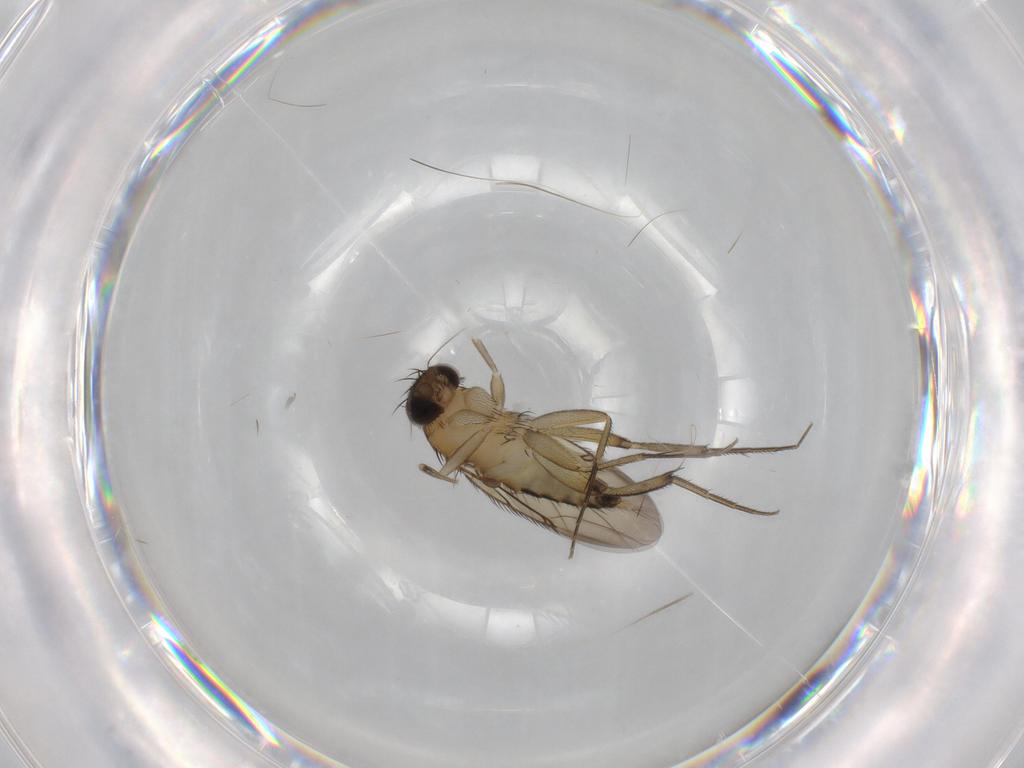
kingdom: Animalia
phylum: Arthropoda
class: Insecta
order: Diptera
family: Phoridae
